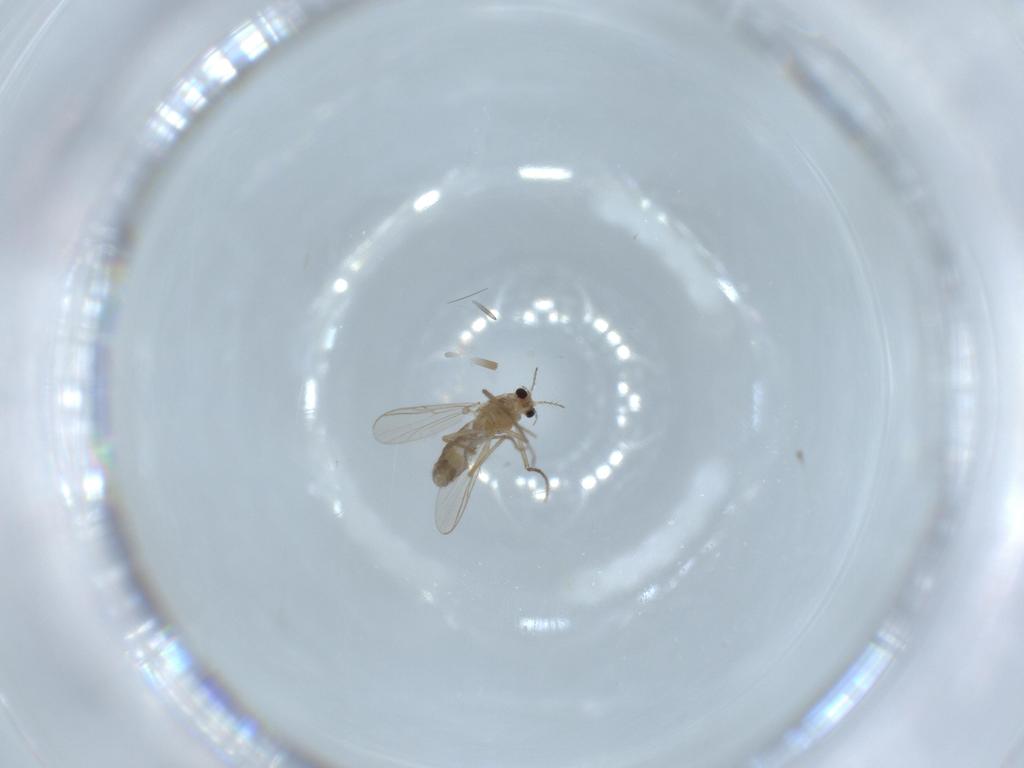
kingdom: Animalia
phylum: Arthropoda
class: Insecta
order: Diptera
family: Chironomidae
